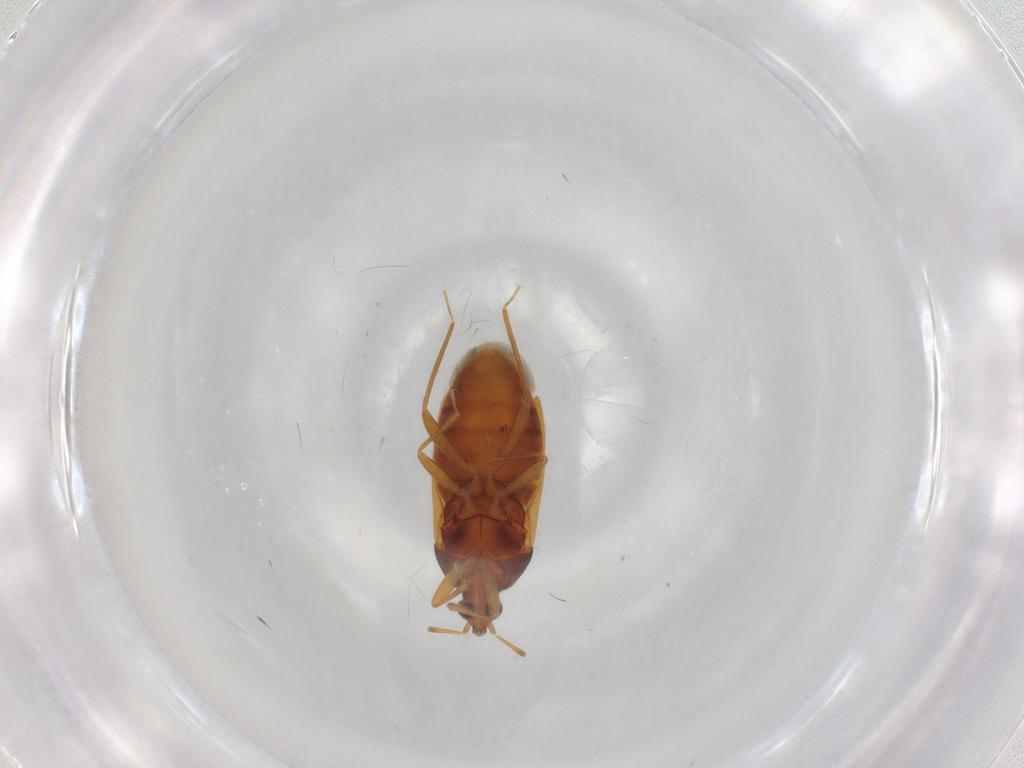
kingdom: Animalia
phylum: Arthropoda
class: Insecta
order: Hemiptera
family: Anthocoridae
